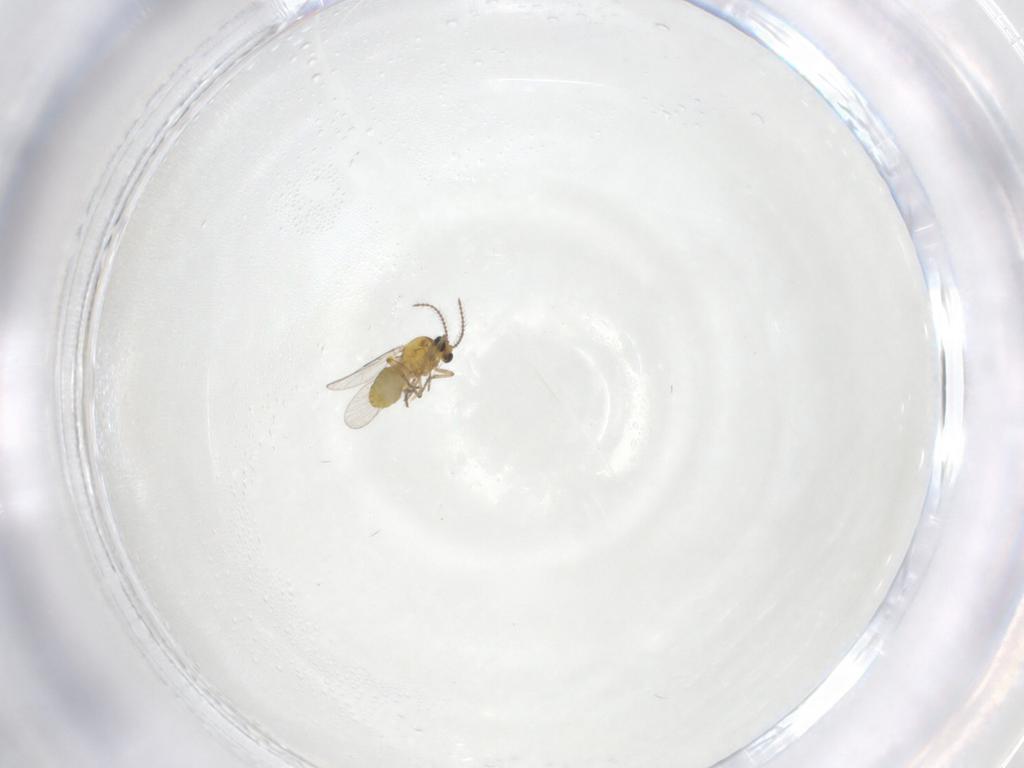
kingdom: Animalia
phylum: Arthropoda
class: Insecta
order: Diptera
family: Ceratopogonidae
